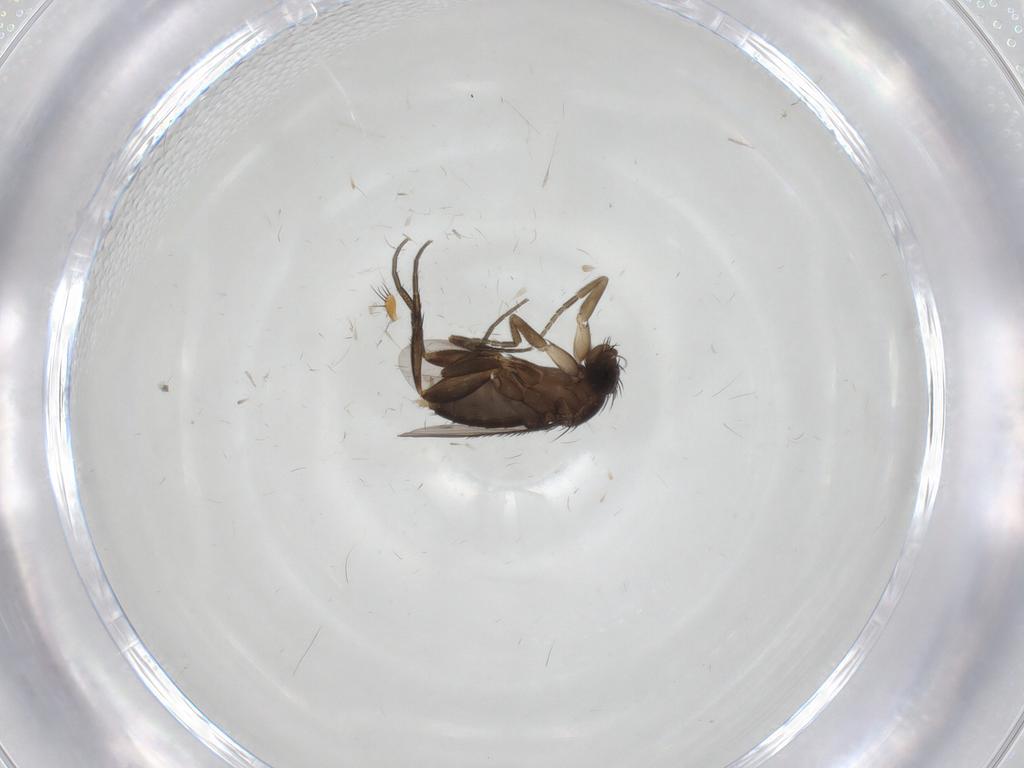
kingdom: Animalia
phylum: Arthropoda
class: Insecta
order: Diptera
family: Phoridae
